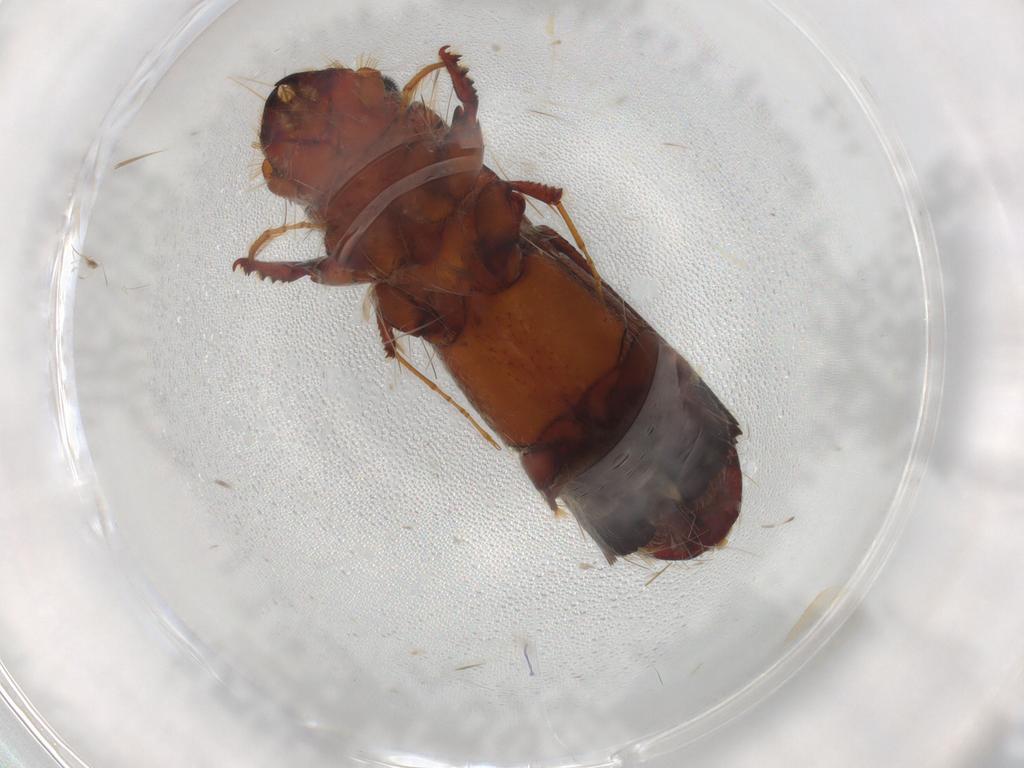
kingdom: Animalia
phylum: Arthropoda
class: Insecta
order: Coleoptera
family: Curculionidae
